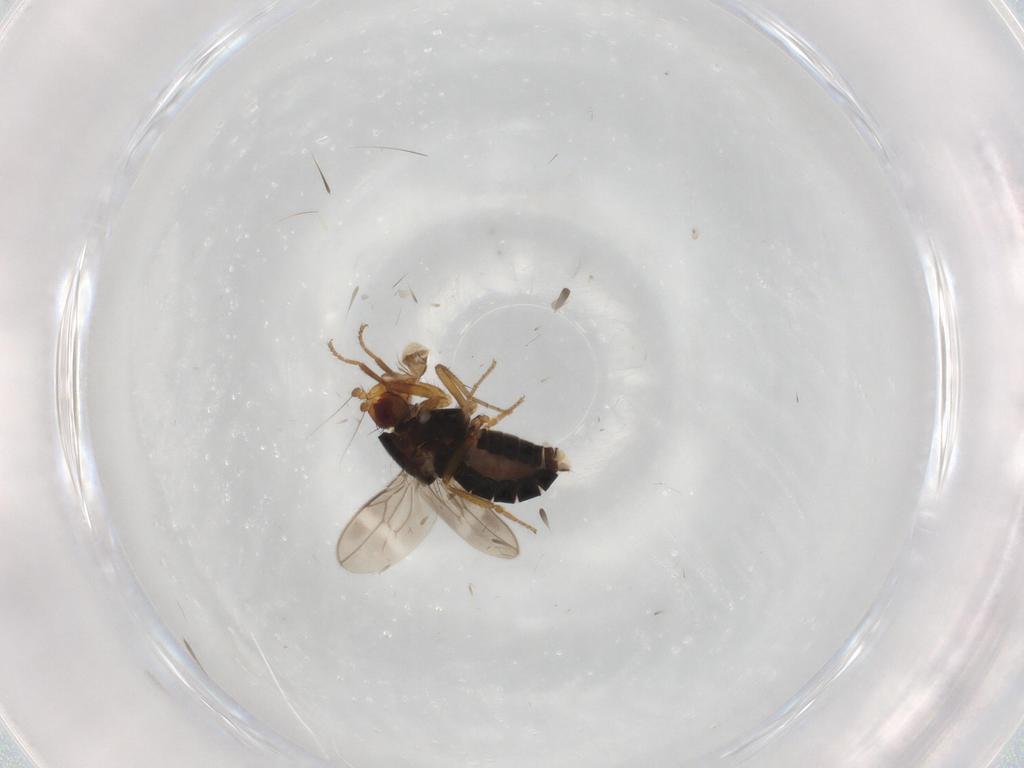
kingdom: Animalia
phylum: Arthropoda
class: Insecta
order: Diptera
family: Sphaeroceridae
